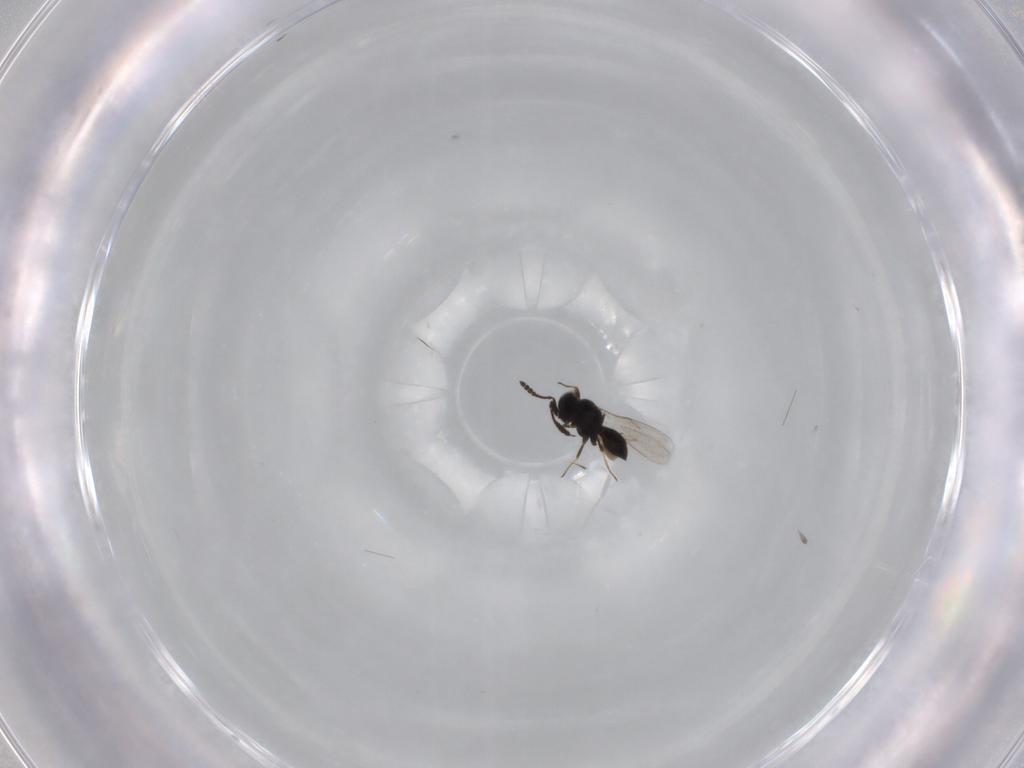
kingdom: Animalia
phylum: Arthropoda
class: Insecta
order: Hymenoptera
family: Scelionidae
